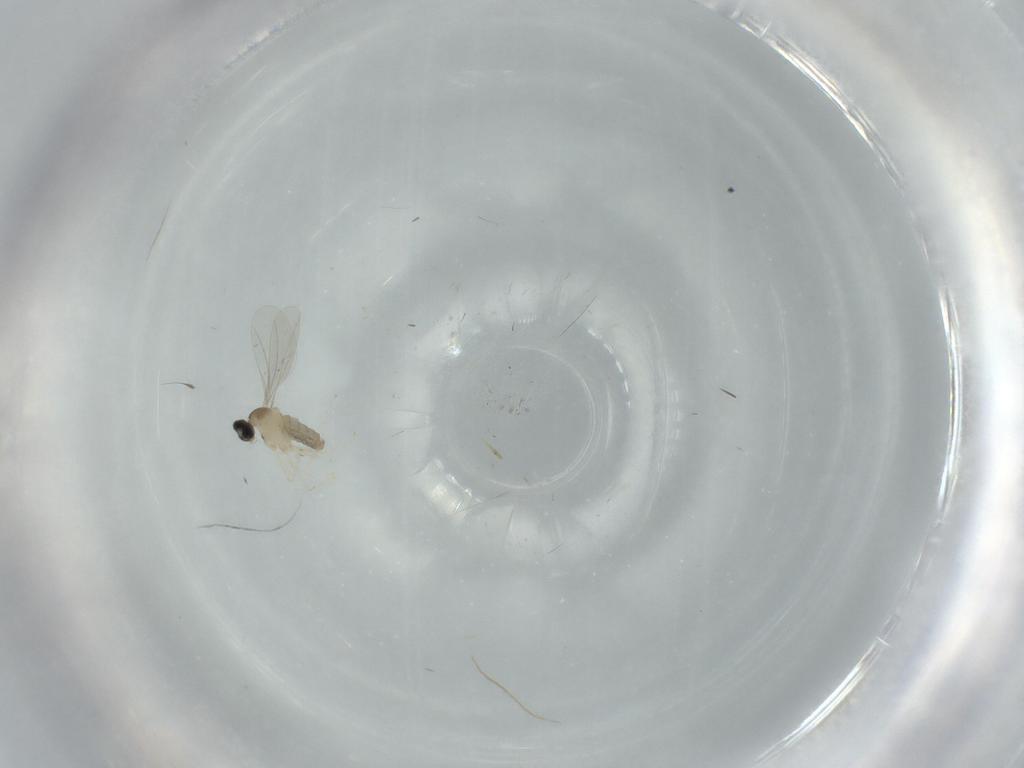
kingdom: Animalia
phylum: Arthropoda
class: Insecta
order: Diptera
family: Cecidomyiidae
